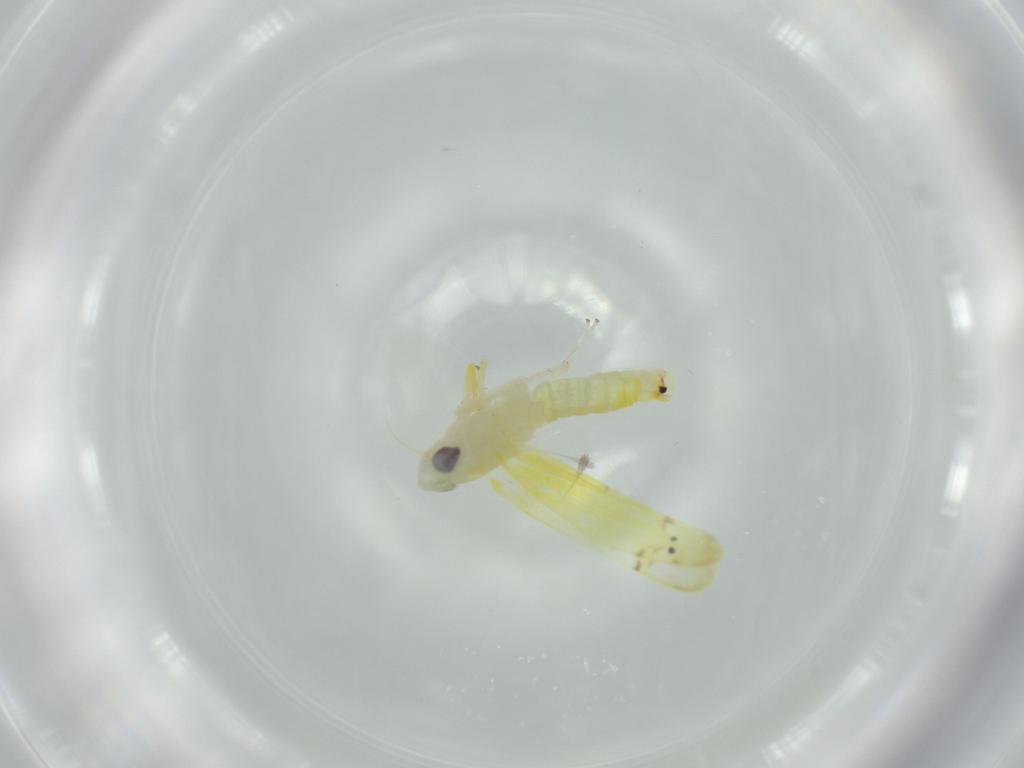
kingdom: Animalia
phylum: Arthropoda
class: Insecta
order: Hemiptera
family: Cicadellidae
